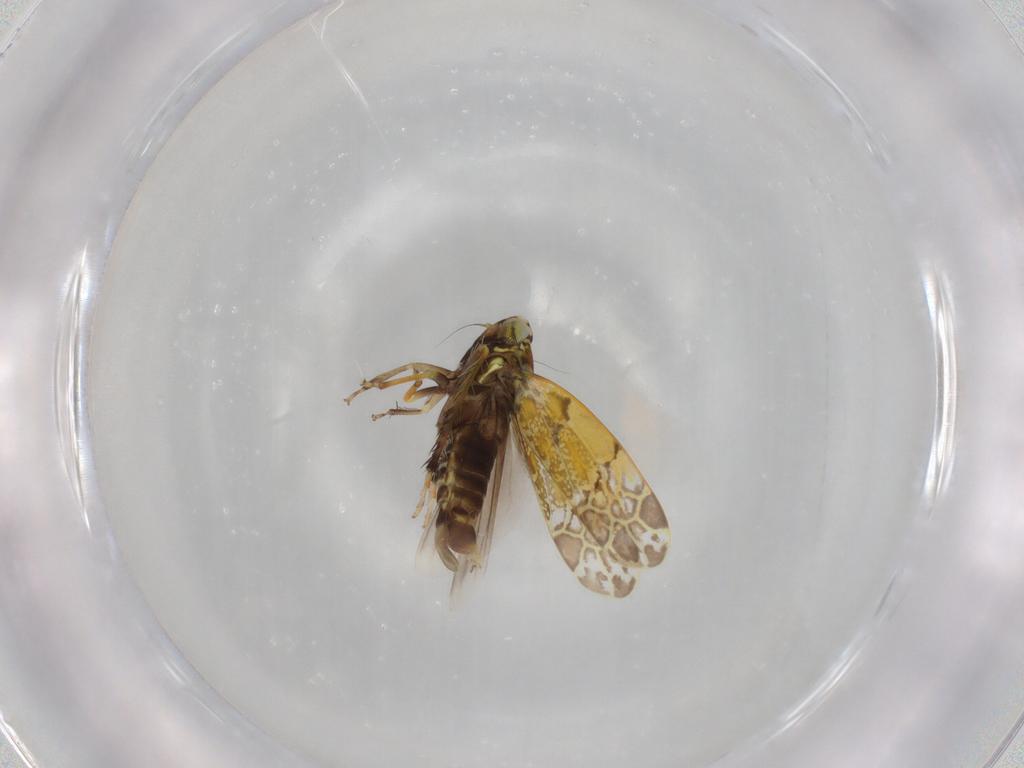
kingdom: Animalia
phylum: Arthropoda
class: Insecta
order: Hemiptera
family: Cicadellidae
